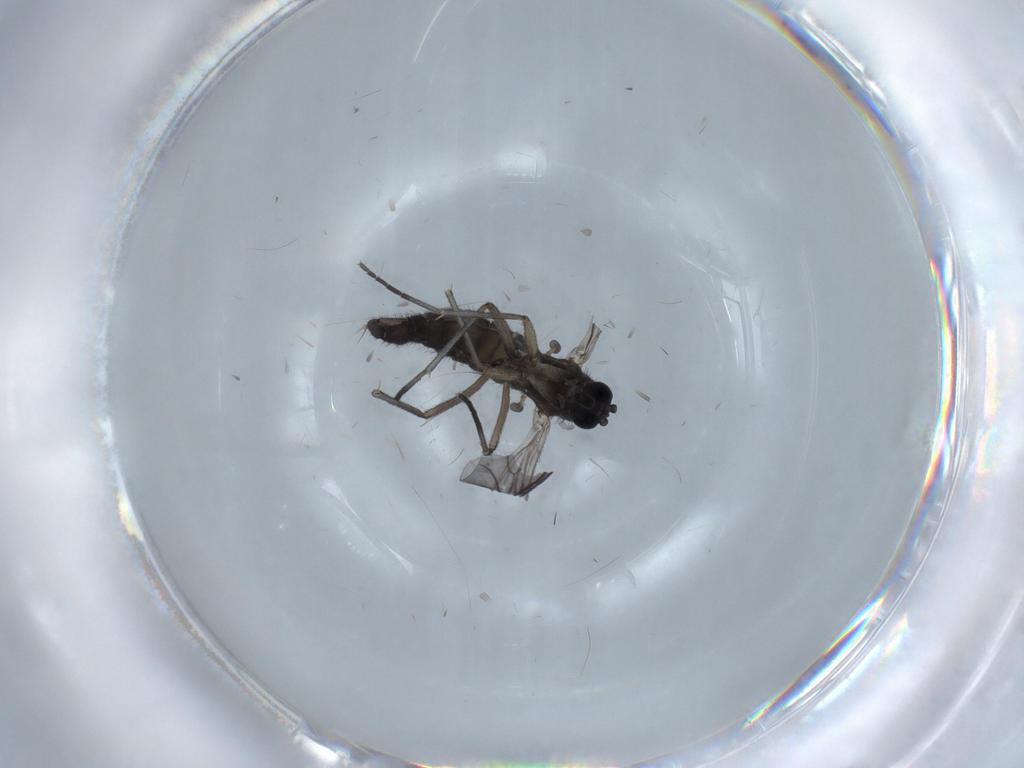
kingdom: Animalia
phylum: Arthropoda
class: Insecta
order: Diptera
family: Sciaridae
